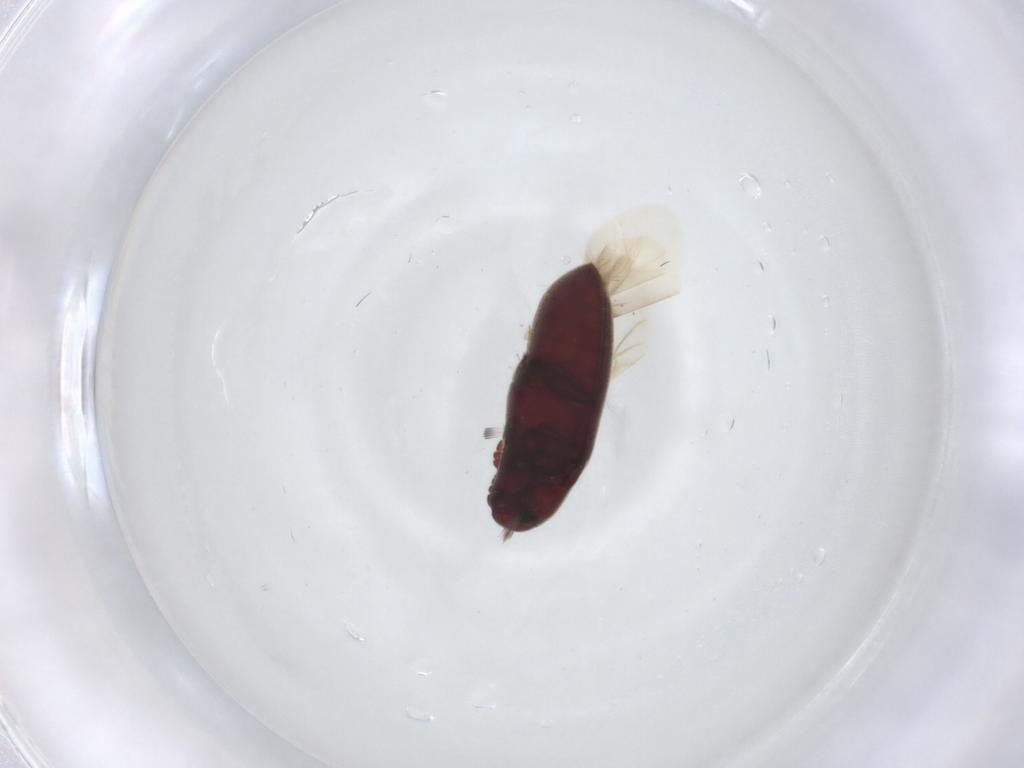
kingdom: Animalia
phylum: Arthropoda
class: Insecta
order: Coleoptera
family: Throscidae
